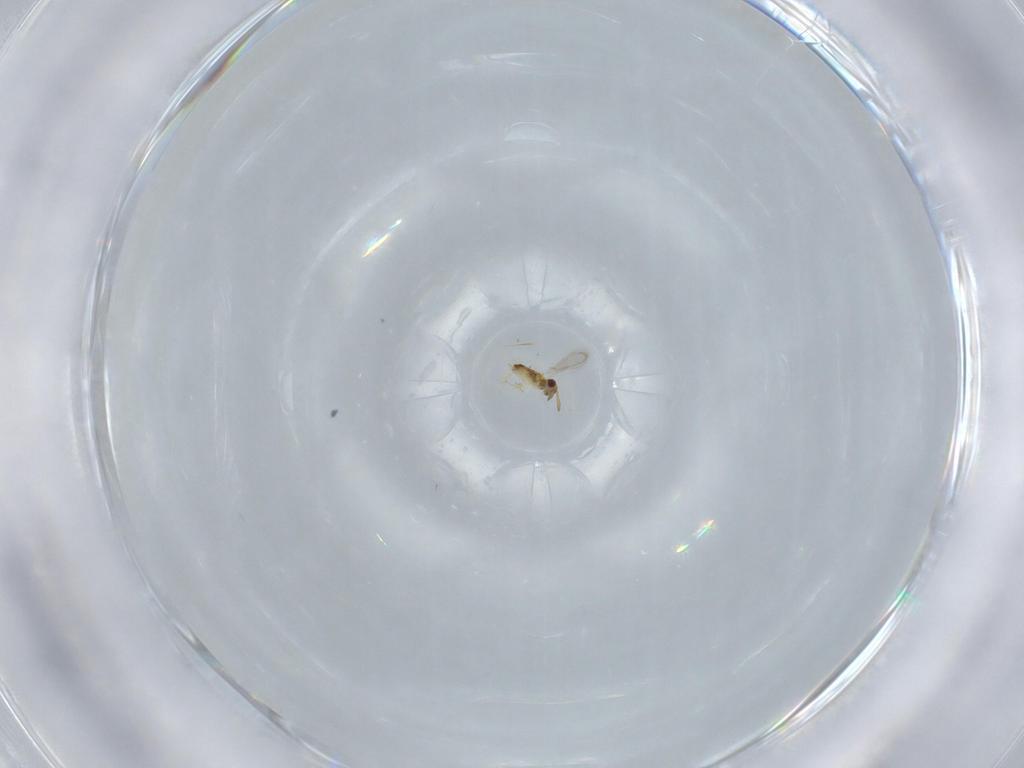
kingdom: Animalia
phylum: Arthropoda
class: Insecta
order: Hymenoptera
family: Aphelinidae
